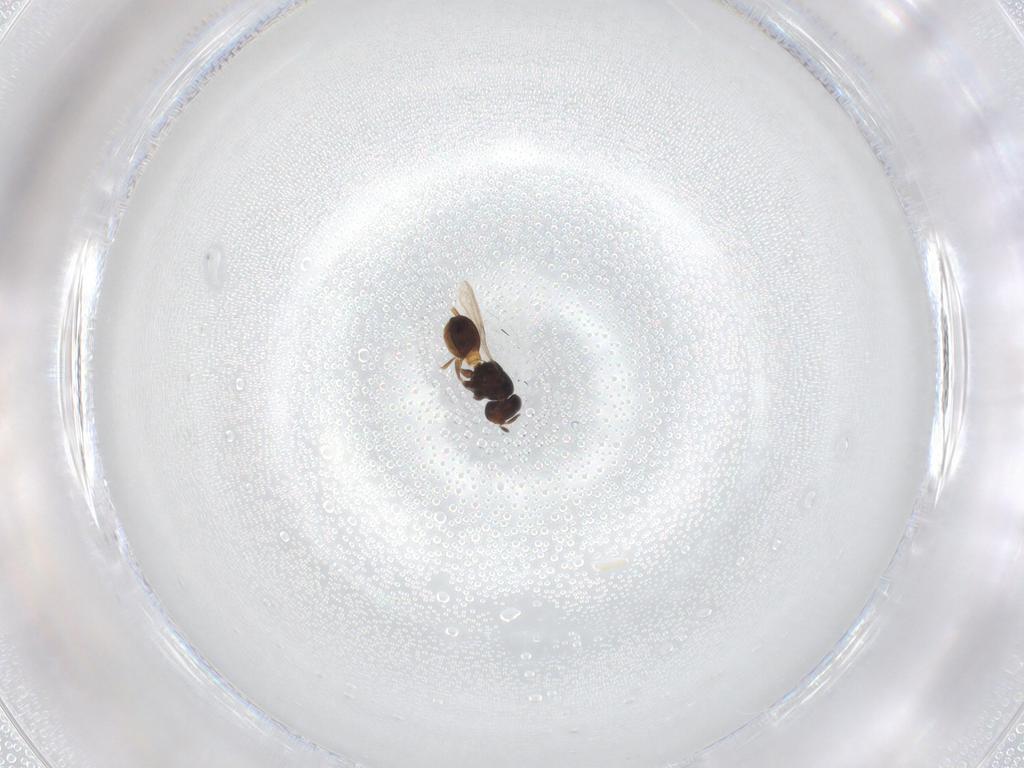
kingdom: Animalia
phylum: Arthropoda
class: Insecta
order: Hymenoptera
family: Scelionidae
